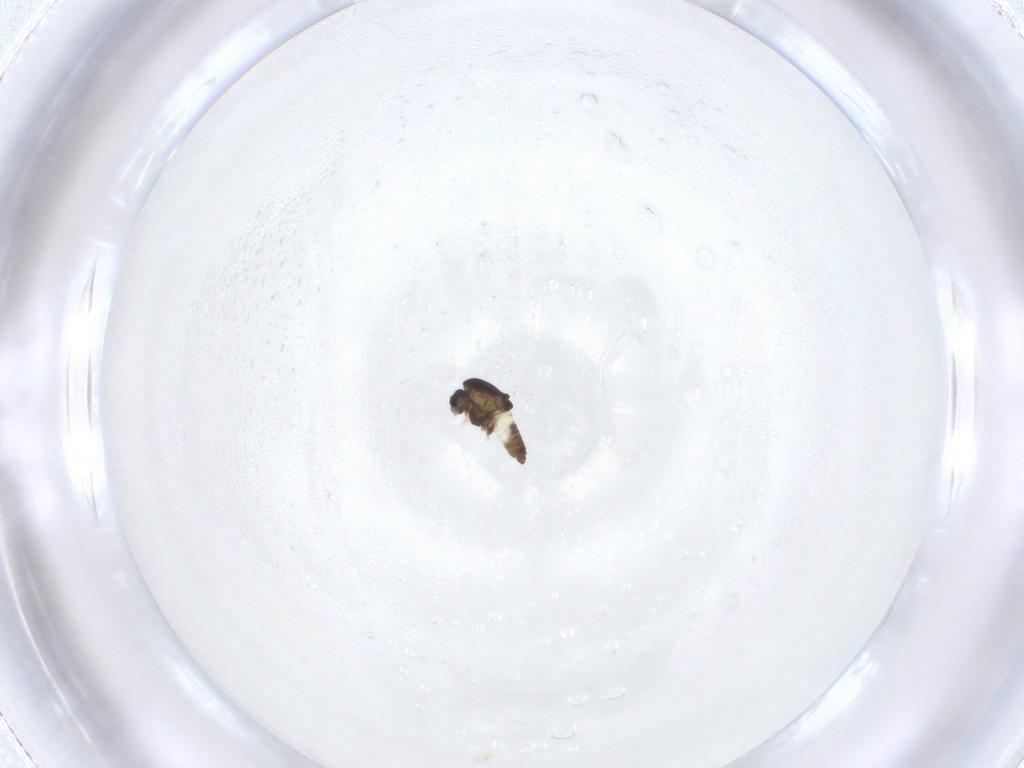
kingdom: Animalia
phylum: Arthropoda
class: Insecta
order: Diptera
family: Chironomidae
